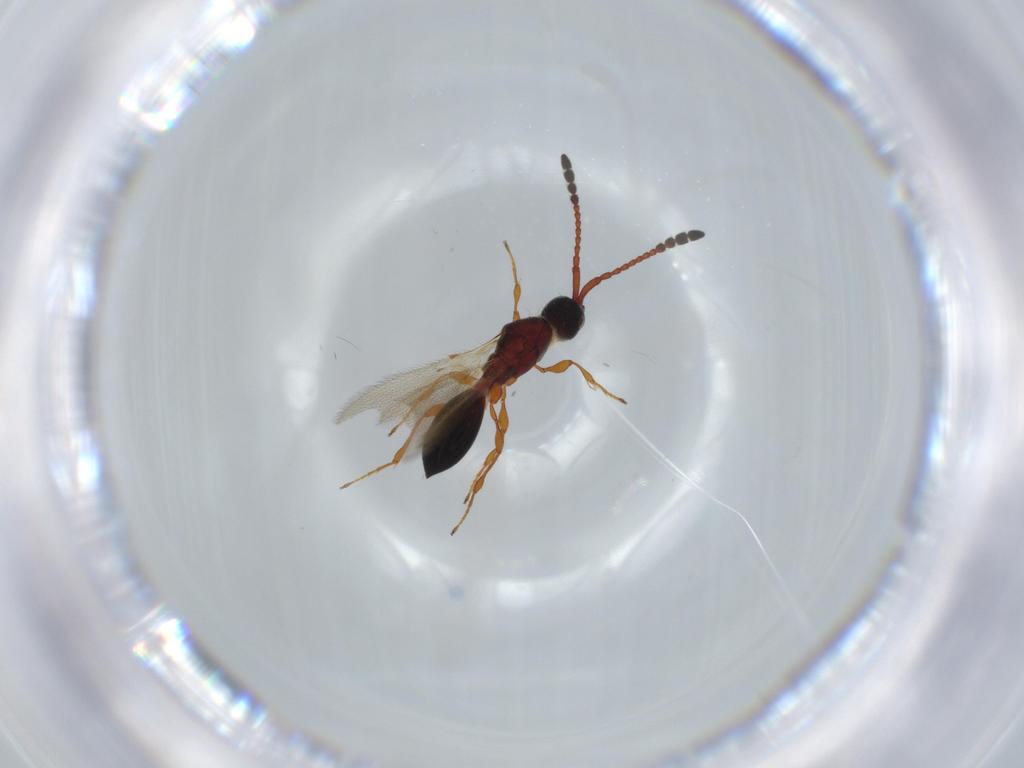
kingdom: Animalia
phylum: Arthropoda
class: Insecta
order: Hymenoptera
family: Diapriidae
